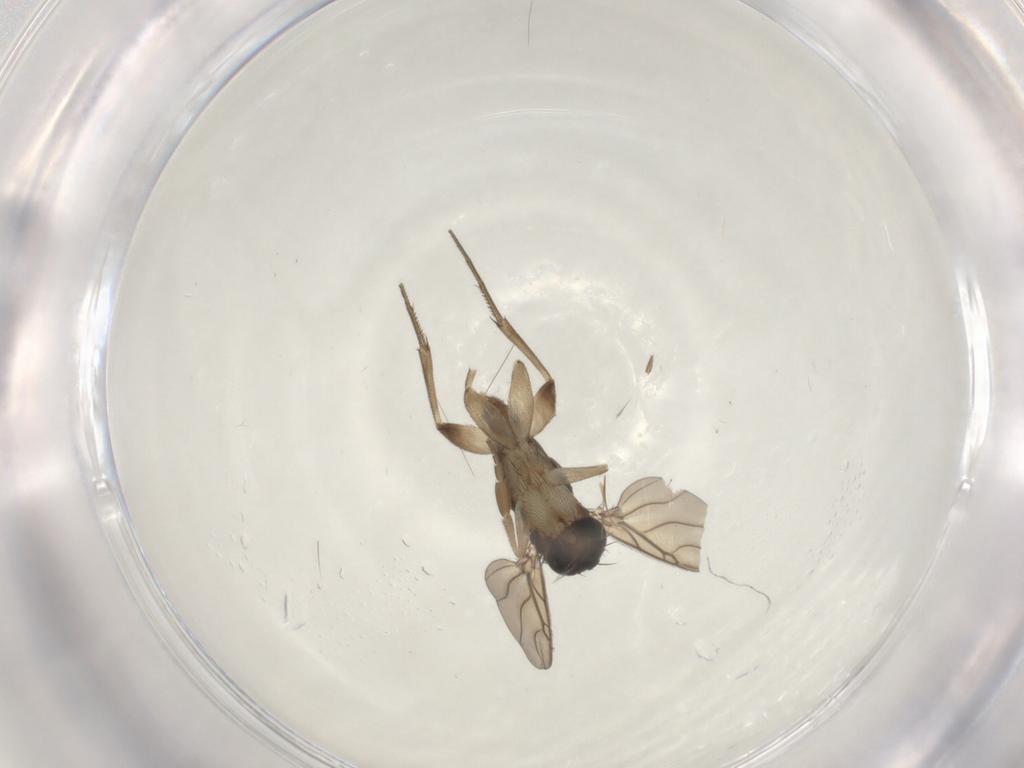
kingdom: Animalia
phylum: Arthropoda
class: Insecta
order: Diptera
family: Phoridae
